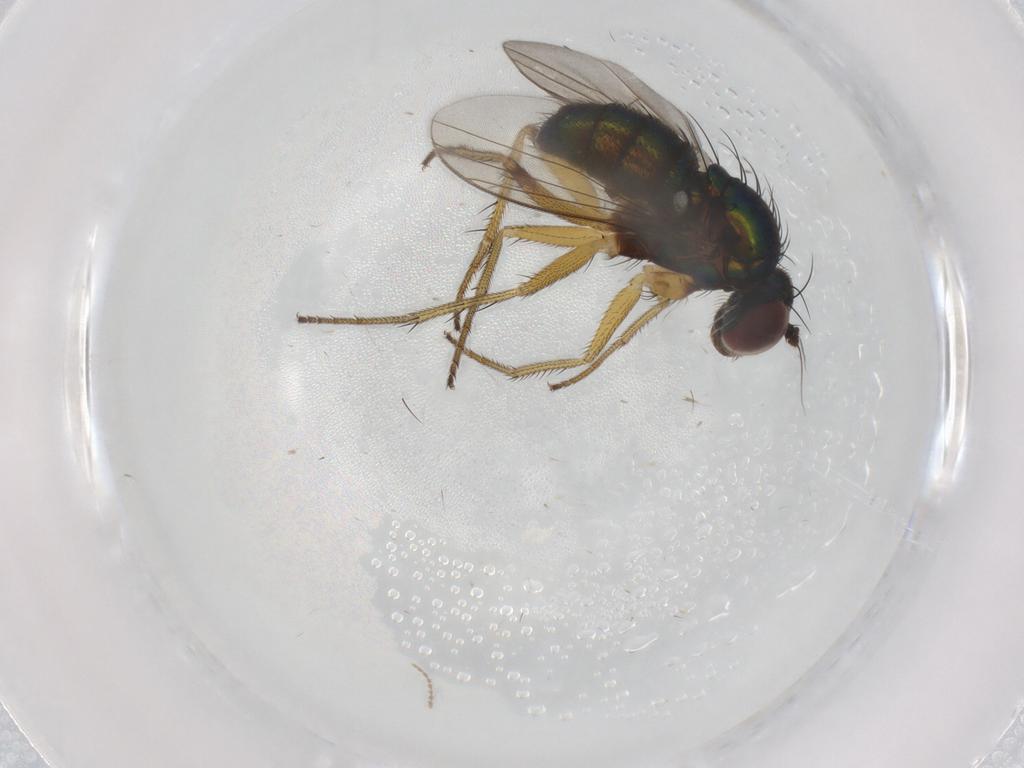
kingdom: Animalia
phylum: Arthropoda
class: Insecta
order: Diptera
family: Dolichopodidae
